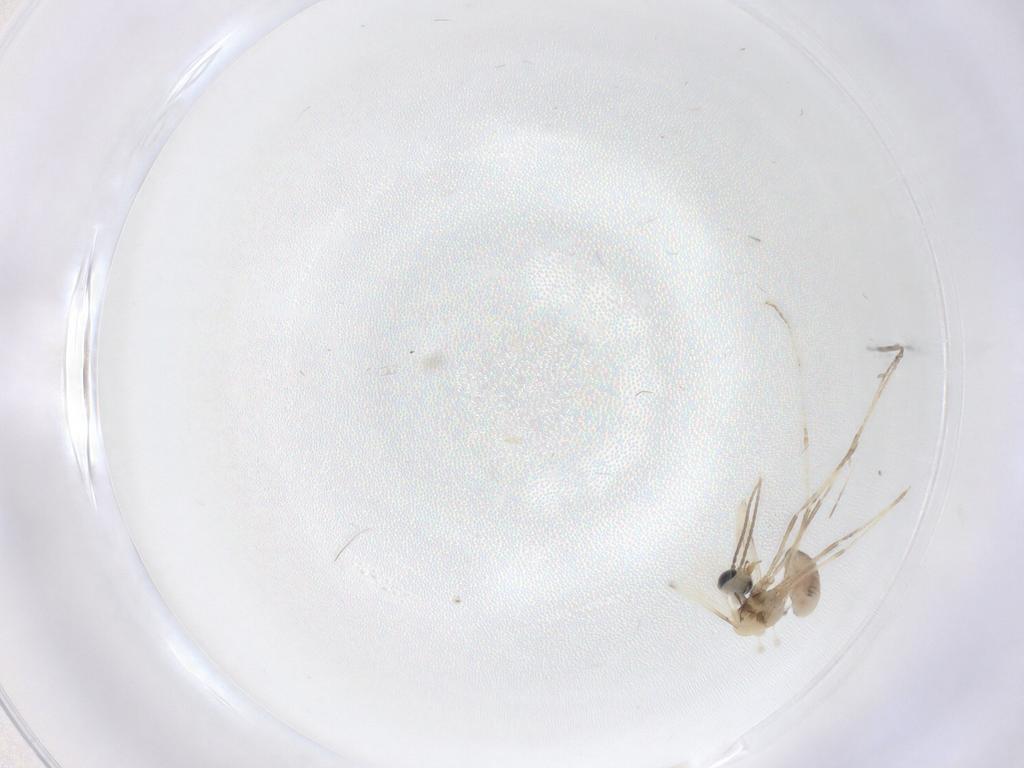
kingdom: Animalia
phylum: Arthropoda
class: Insecta
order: Diptera
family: Cecidomyiidae
